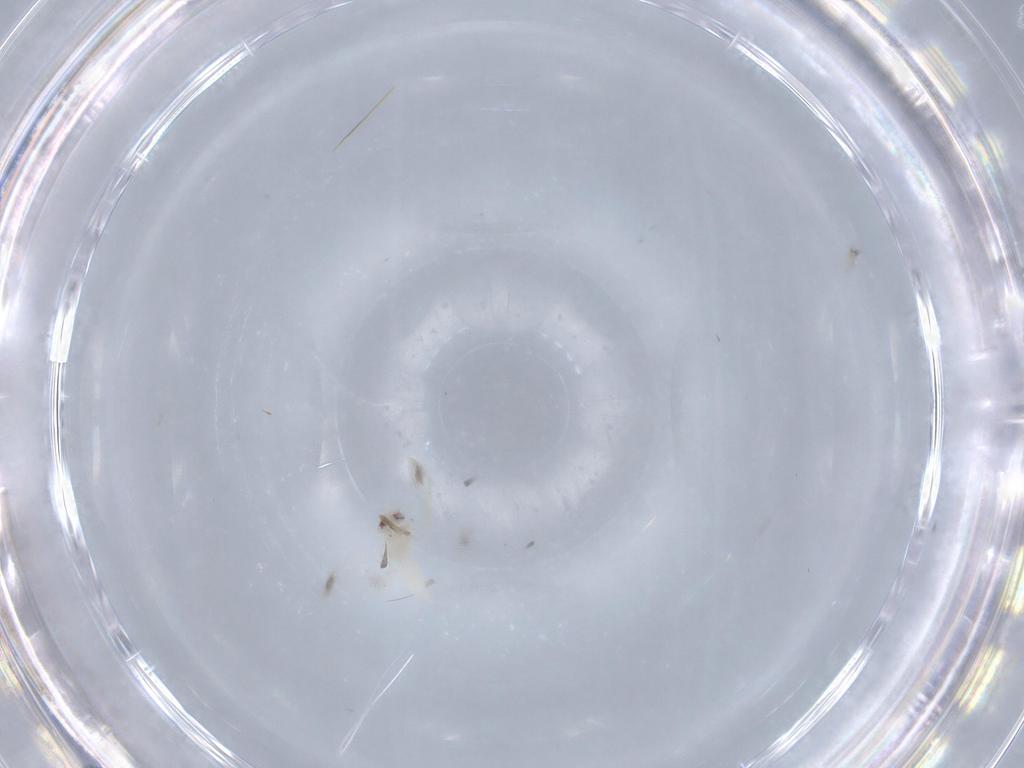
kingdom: Animalia
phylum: Arthropoda
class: Insecta
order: Hemiptera
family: Aleyrodidae
